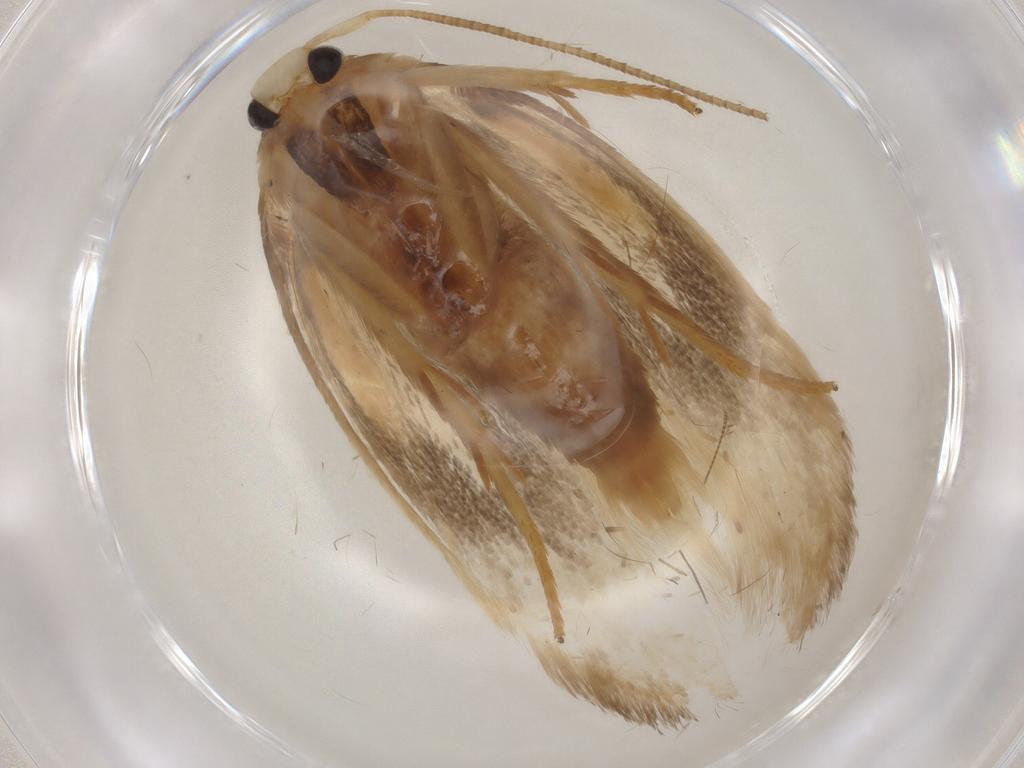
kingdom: Animalia
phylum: Arthropoda
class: Insecta
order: Lepidoptera
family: Geometridae
